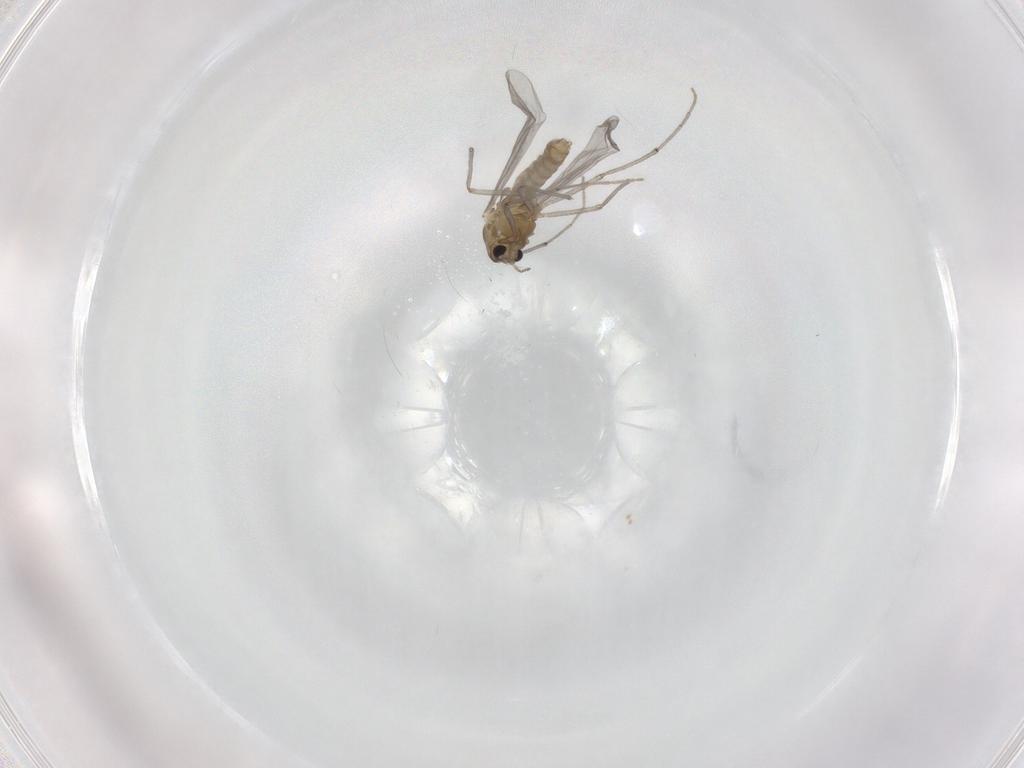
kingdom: Animalia
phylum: Arthropoda
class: Insecta
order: Diptera
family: Chironomidae
